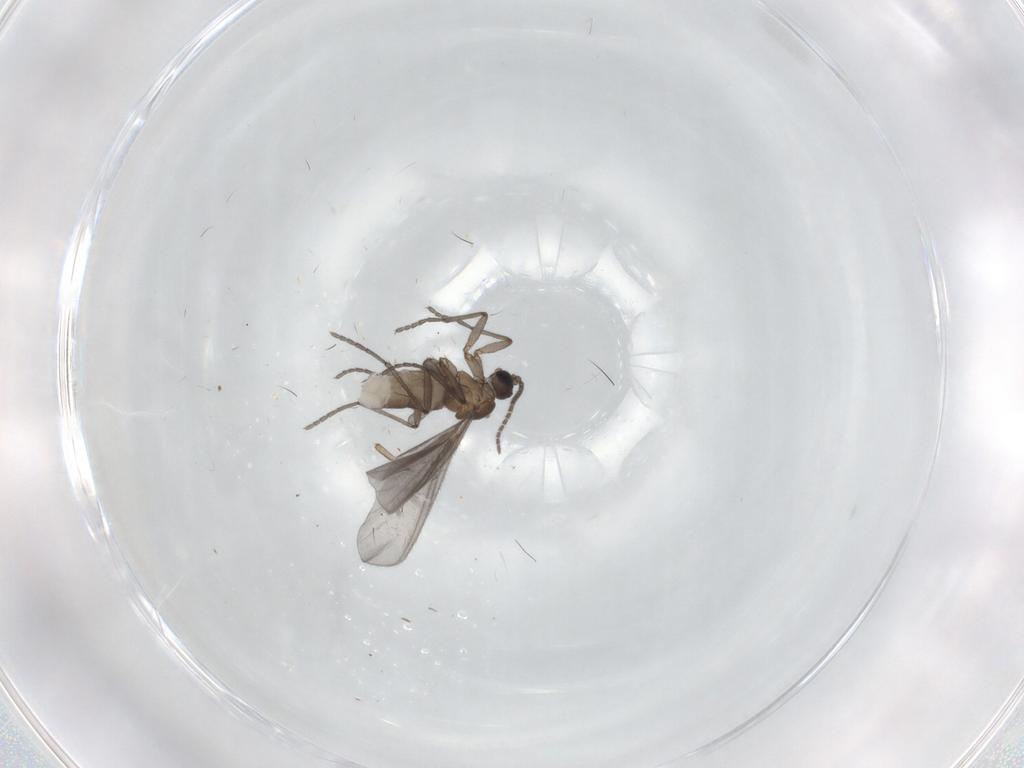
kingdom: Animalia
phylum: Arthropoda
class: Insecta
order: Diptera
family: Sciaridae
